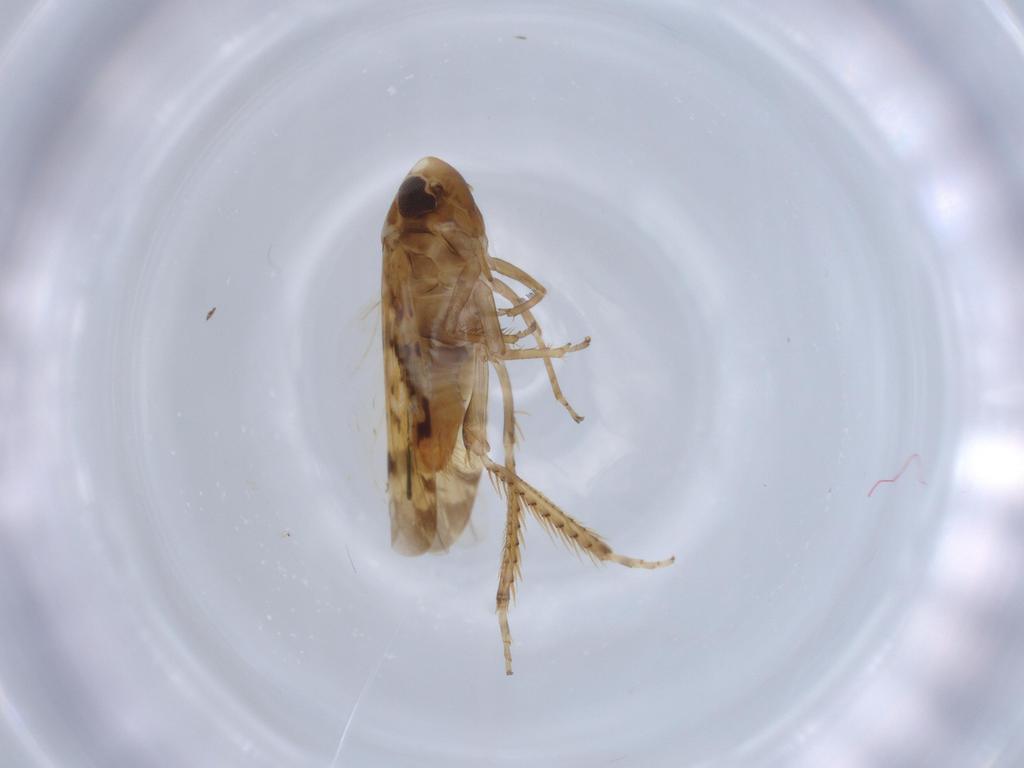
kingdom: Animalia
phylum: Arthropoda
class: Insecta
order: Hemiptera
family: Cicadellidae
